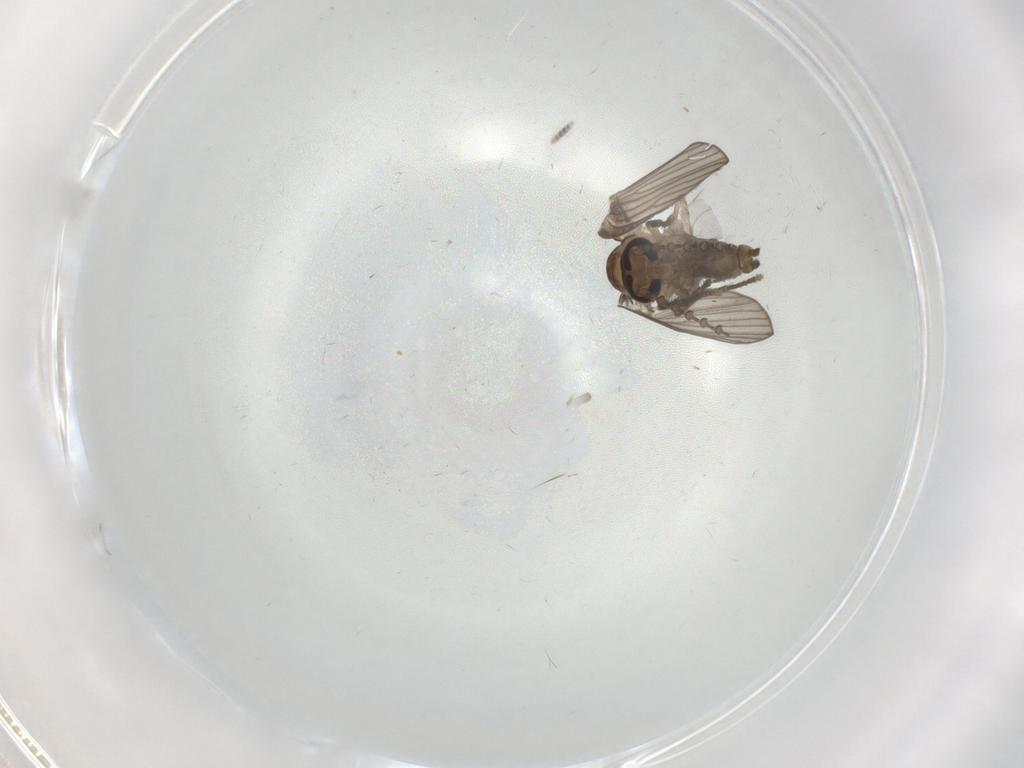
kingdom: Animalia
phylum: Arthropoda
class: Insecta
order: Diptera
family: Psychodidae
